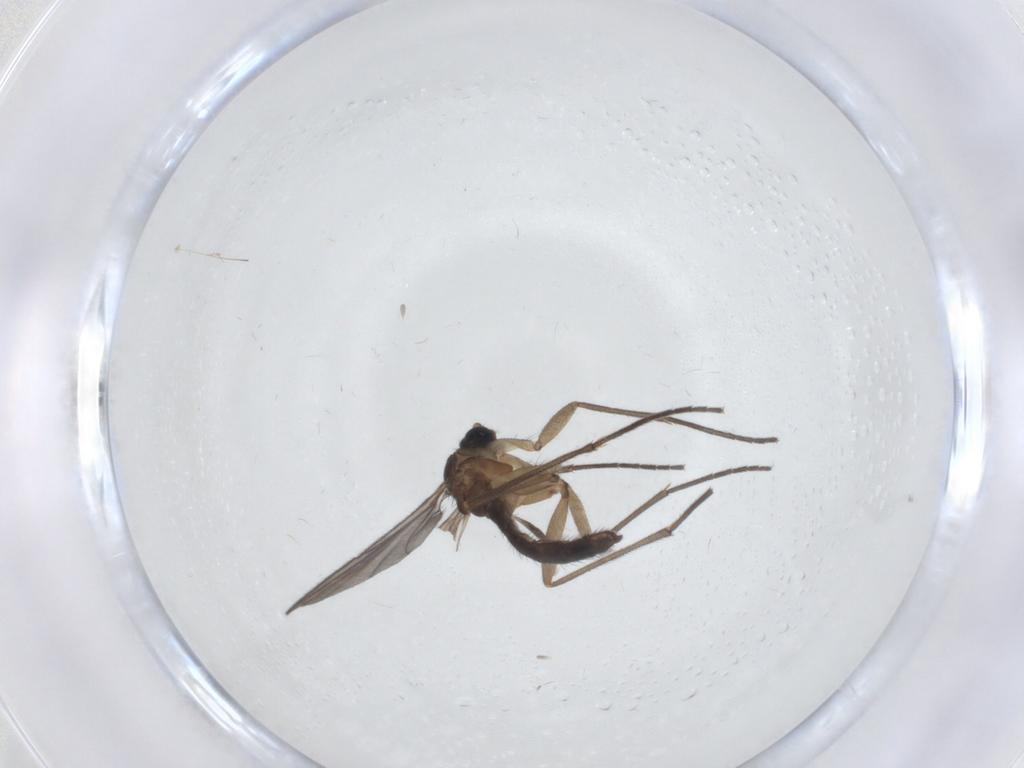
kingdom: Animalia
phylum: Arthropoda
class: Insecta
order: Diptera
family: Sciaridae
